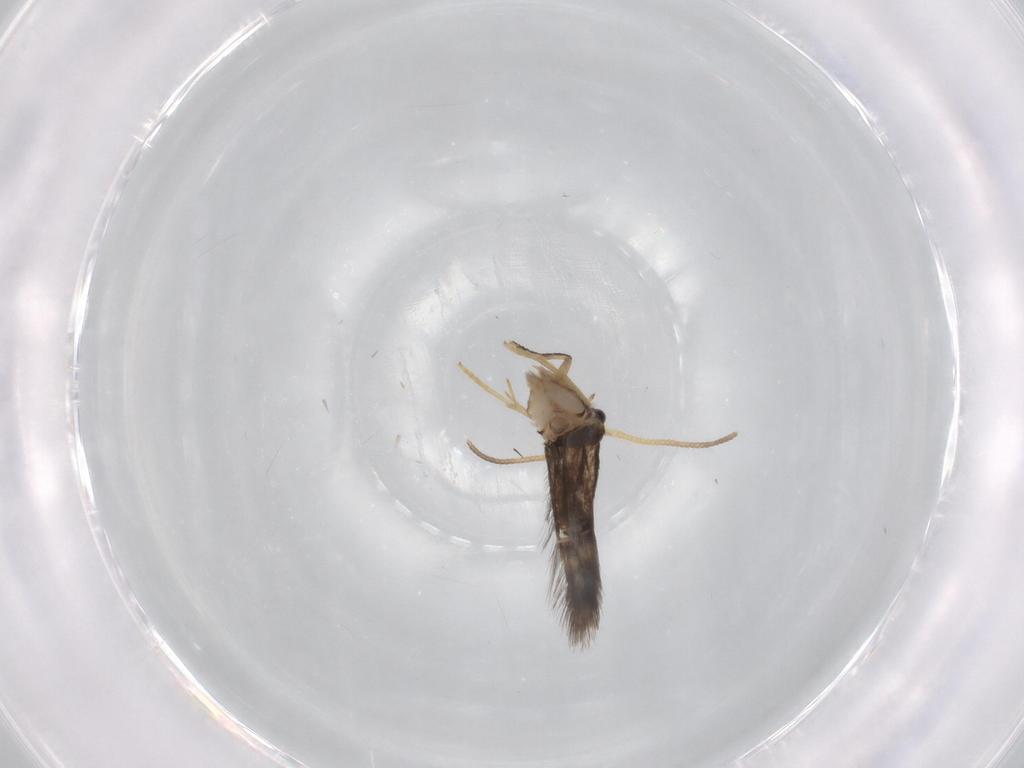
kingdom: Animalia
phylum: Arthropoda
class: Insecta
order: Lepidoptera
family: Nepticulidae
